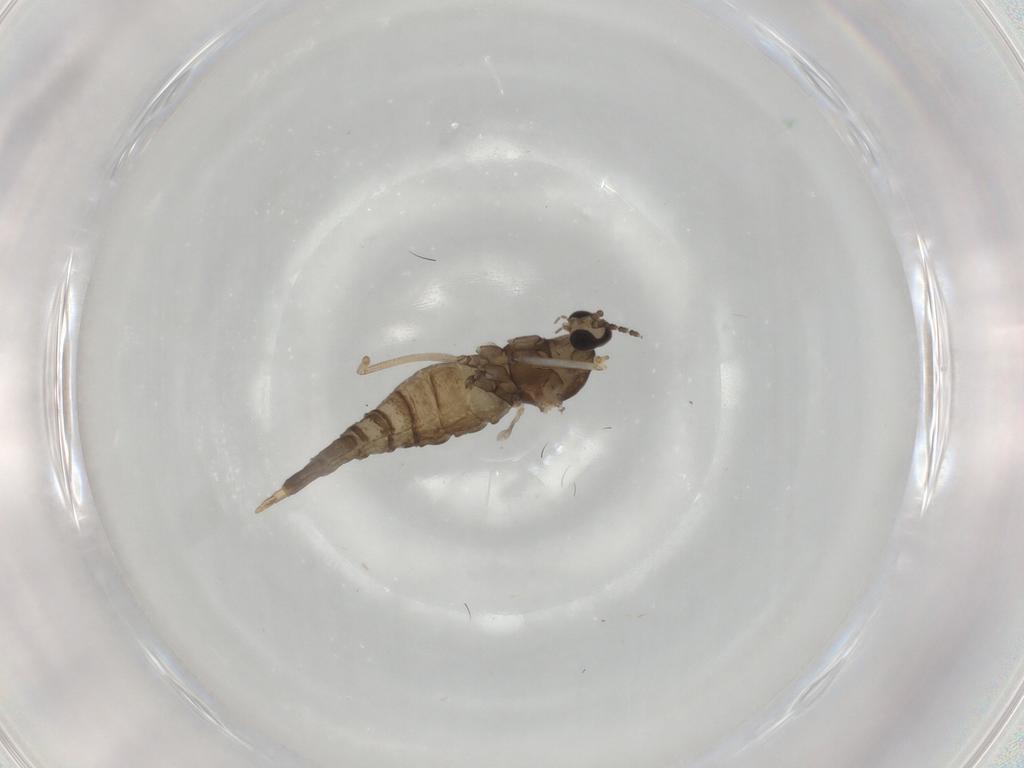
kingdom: Animalia
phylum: Arthropoda
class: Insecta
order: Diptera
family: Cecidomyiidae
